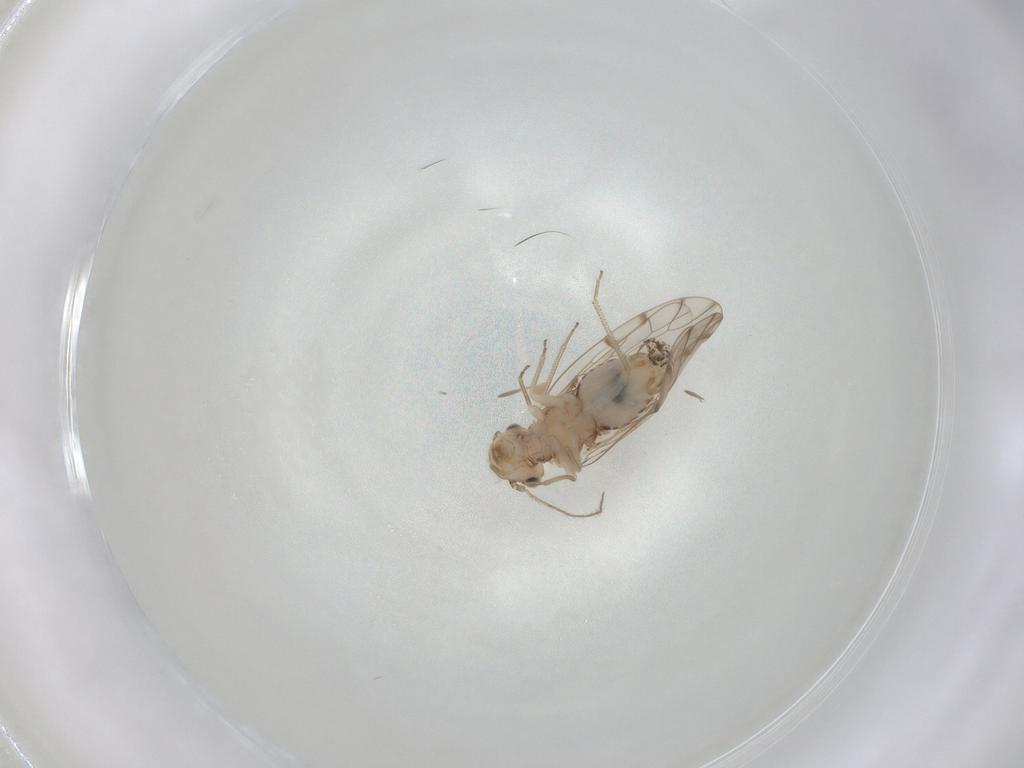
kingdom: Animalia
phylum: Arthropoda
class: Insecta
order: Psocodea
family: Ectopsocidae
